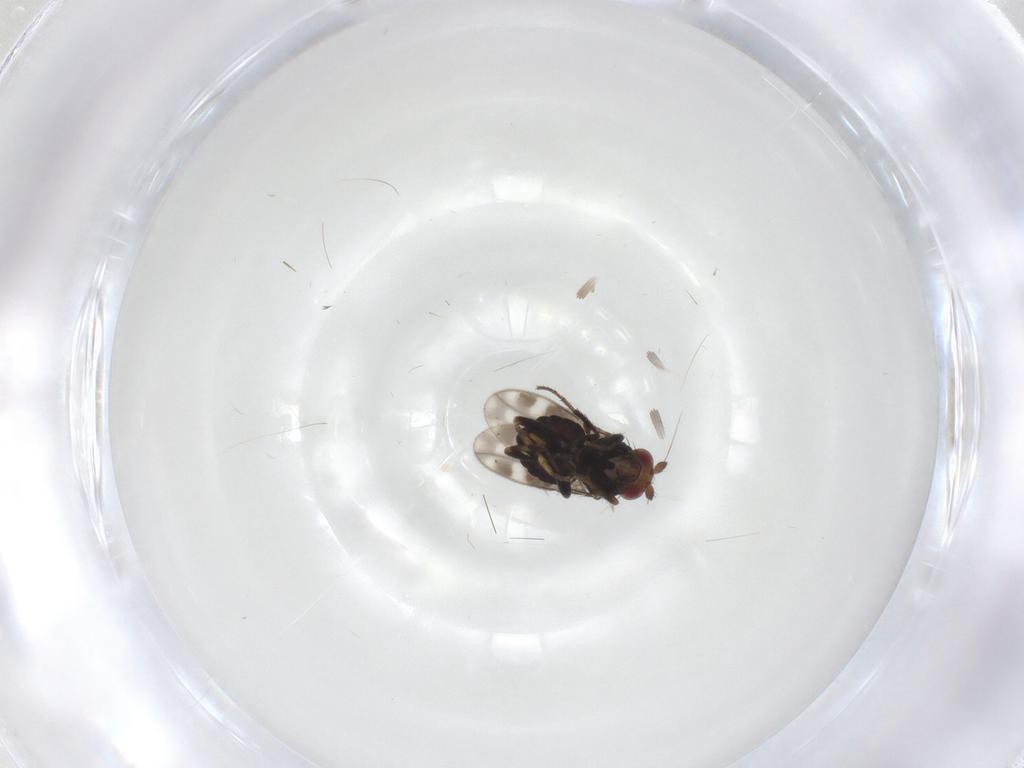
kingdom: Animalia
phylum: Arthropoda
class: Insecta
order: Diptera
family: Sphaeroceridae
